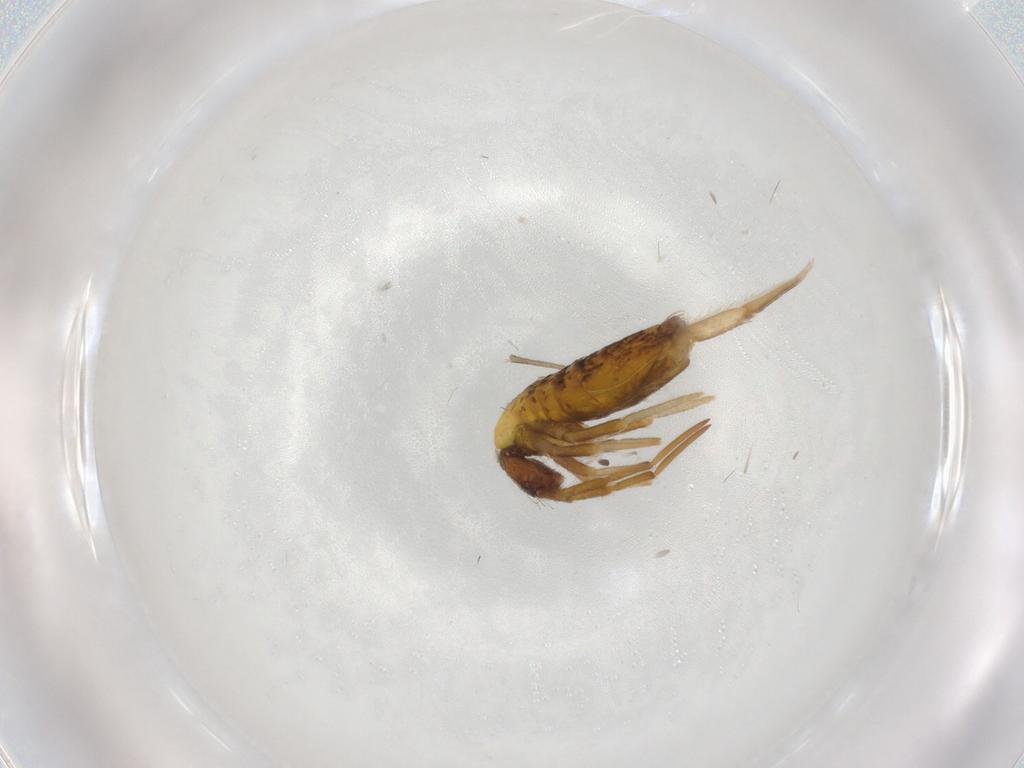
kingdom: Animalia
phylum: Arthropoda
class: Collembola
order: Entomobryomorpha
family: Entomobryidae
